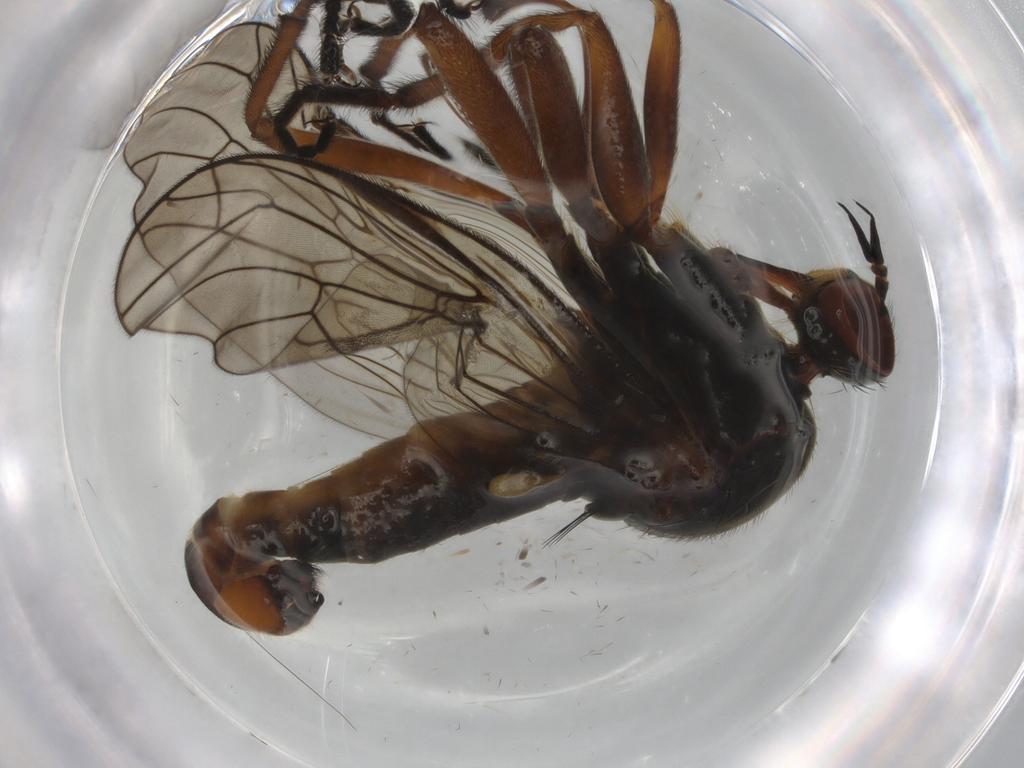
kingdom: Animalia
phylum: Arthropoda
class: Insecta
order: Diptera
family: Empididae
